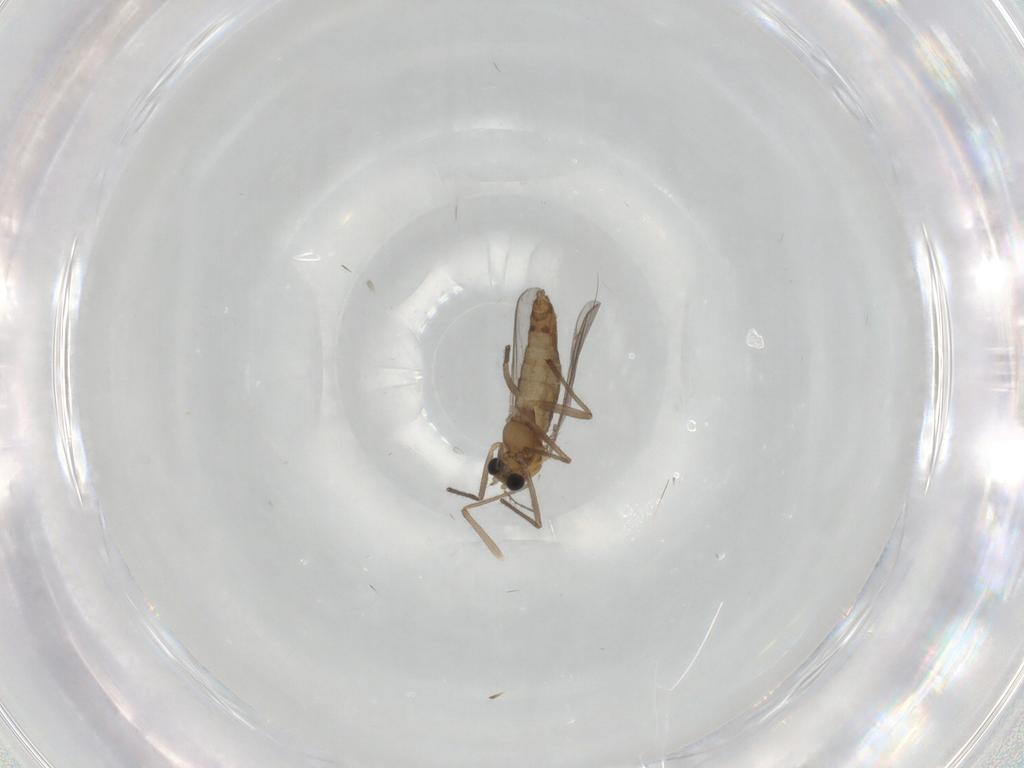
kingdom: Animalia
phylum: Arthropoda
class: Insecta
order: Diptera
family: Chironomidae
